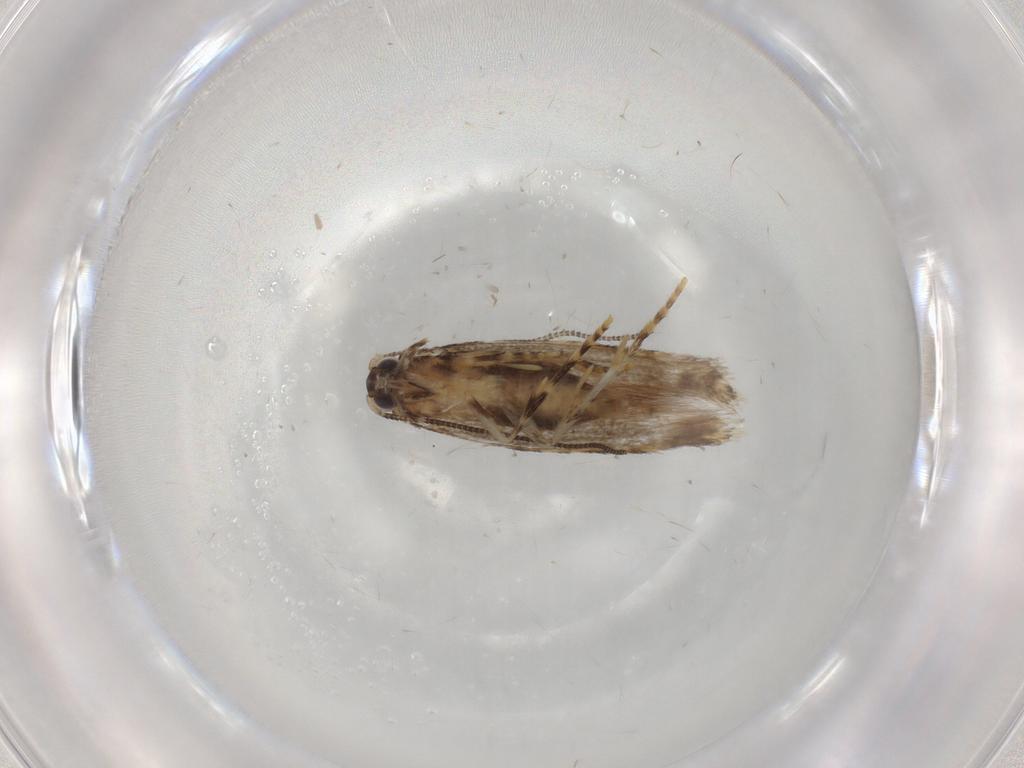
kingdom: Animalia
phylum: Arthropoda
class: Insecta
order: Lepidoptera
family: Tineidae
